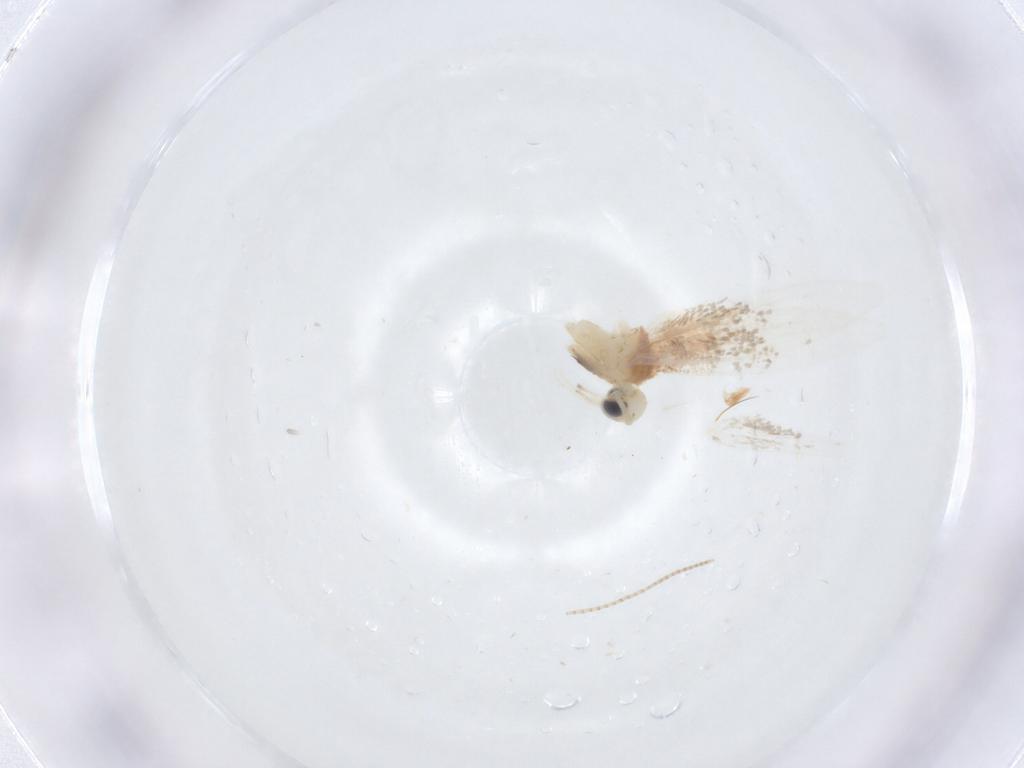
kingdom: Animalia
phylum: Arthropoda
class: Insecta
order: Lepidoptera
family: Gracillariidae
